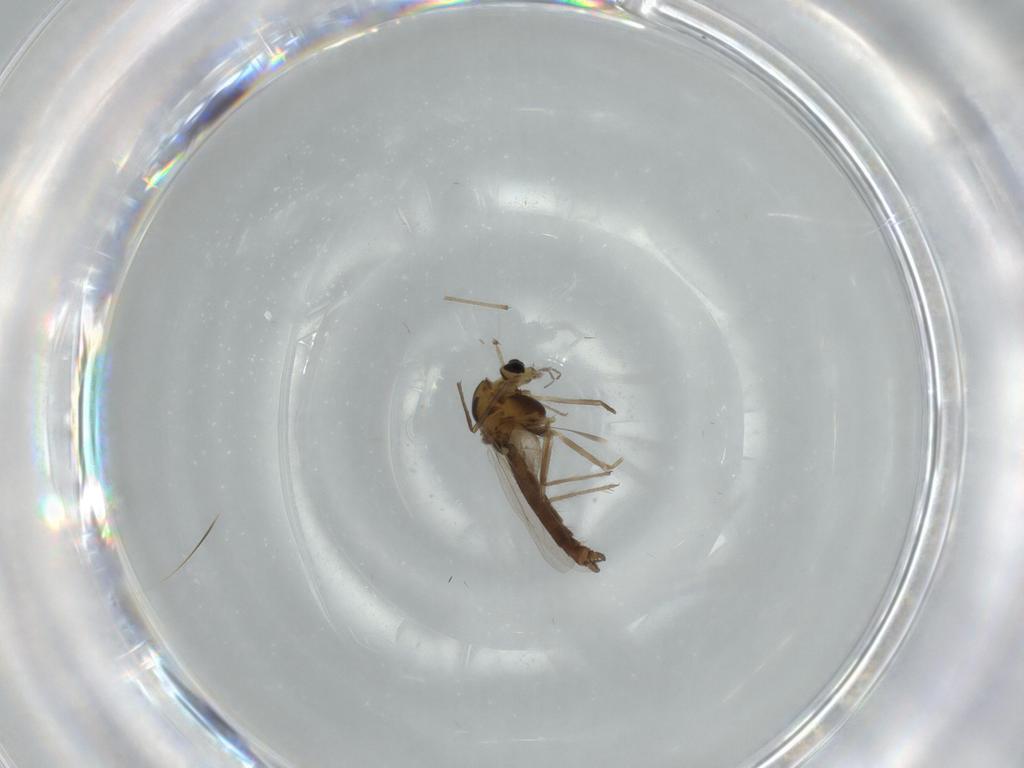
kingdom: Animalia
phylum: Arthropoda
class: Insecta
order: Diptera
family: Chironomidae
